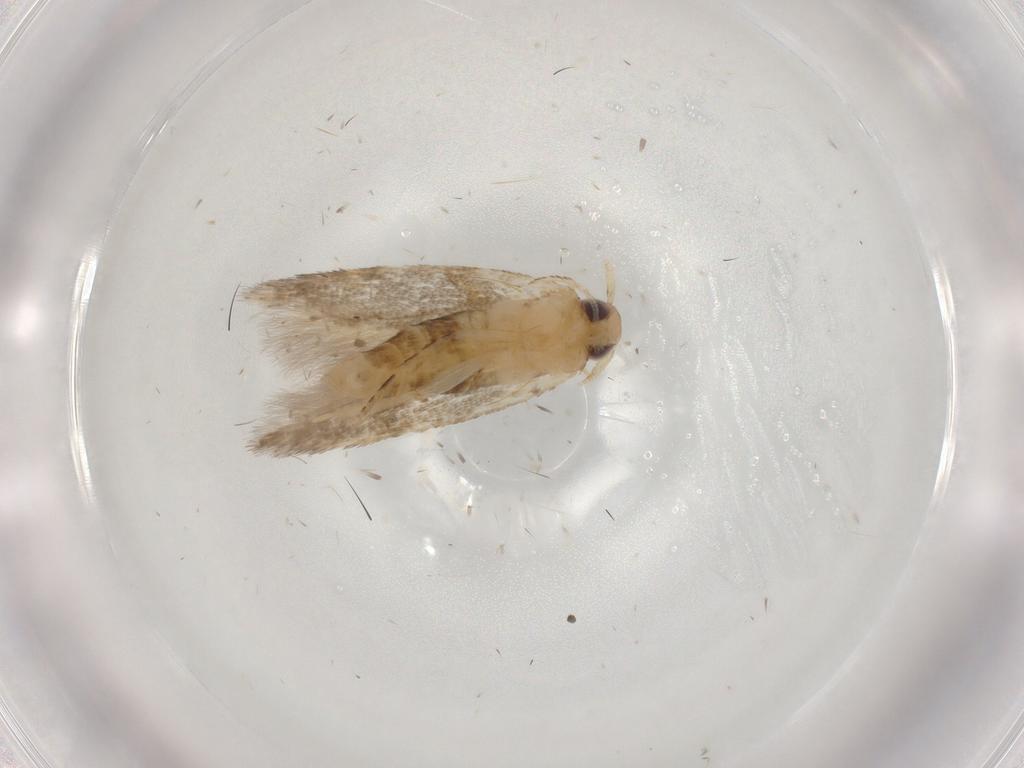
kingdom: Animalia
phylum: Arthropoda
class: Insecta
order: Lepidoptera
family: Cosmopterigidae
